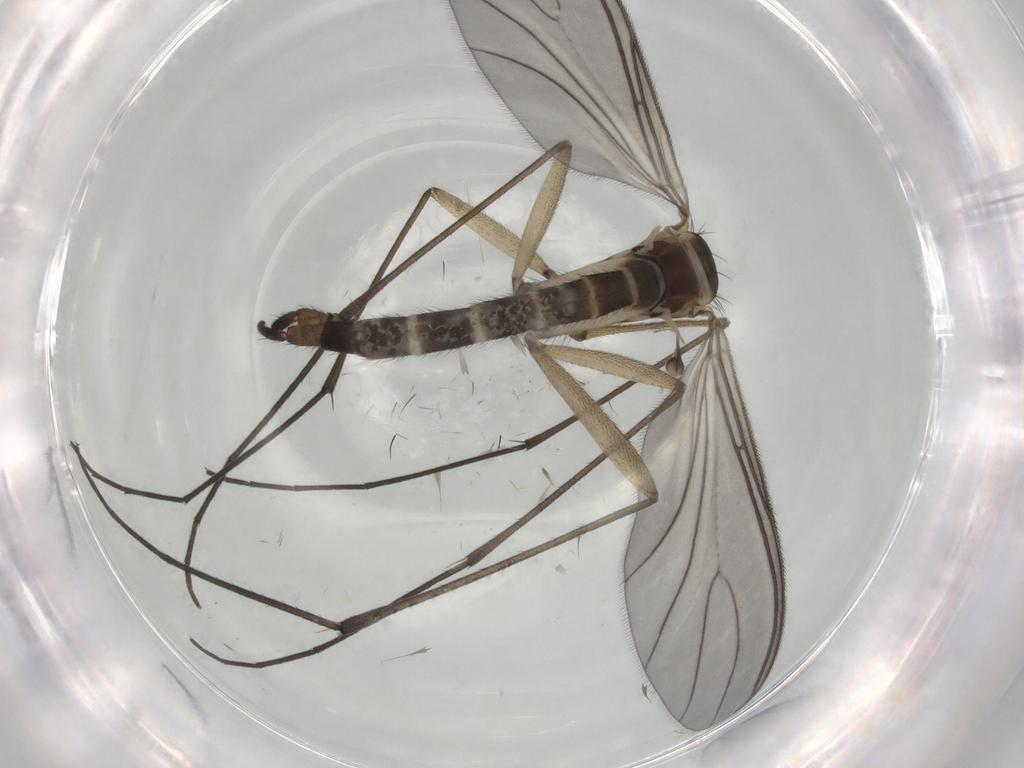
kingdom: Animalia
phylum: Arthropoda
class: Insecta
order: Diptera
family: Sciaridae
